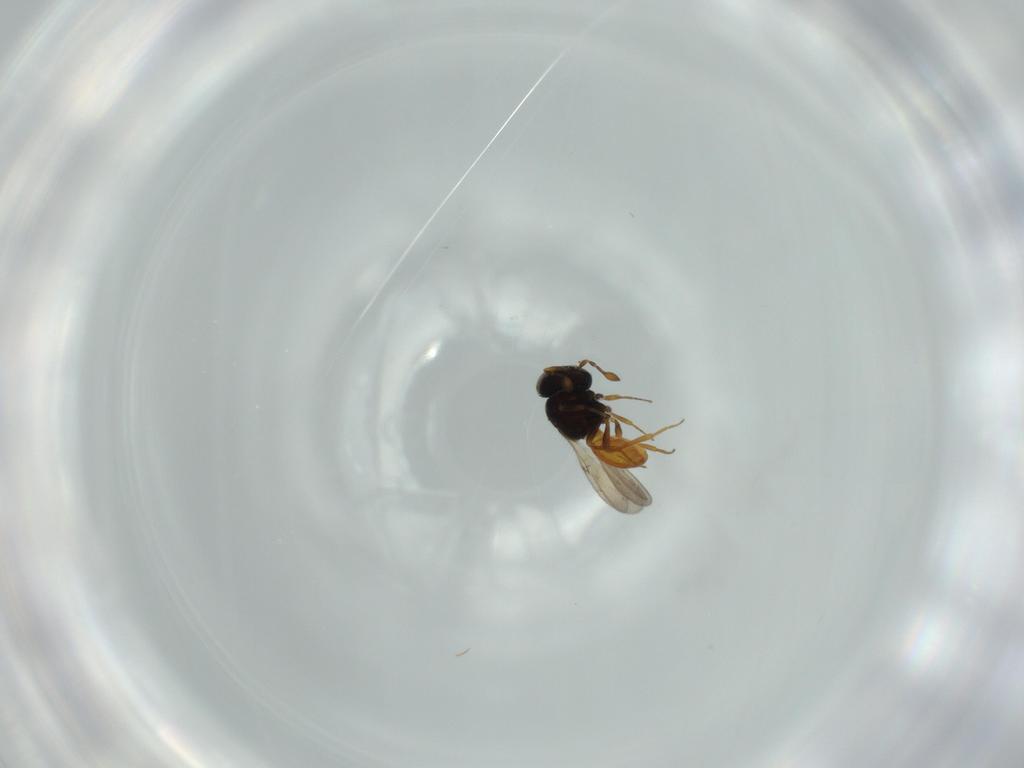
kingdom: Animalia
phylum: Arthropoda
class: Insecta
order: Hymenoptera
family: Scelionidae
